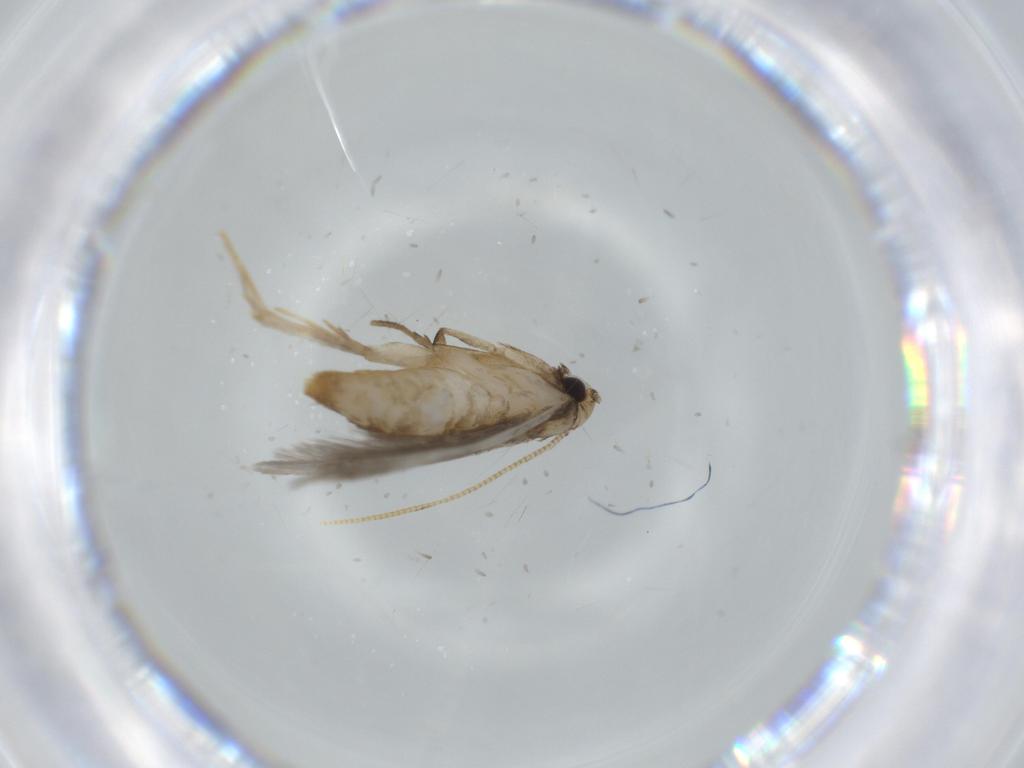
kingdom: Animalia
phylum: Arthropoda
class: Insecta
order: Lepidoptera
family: Tineidae
